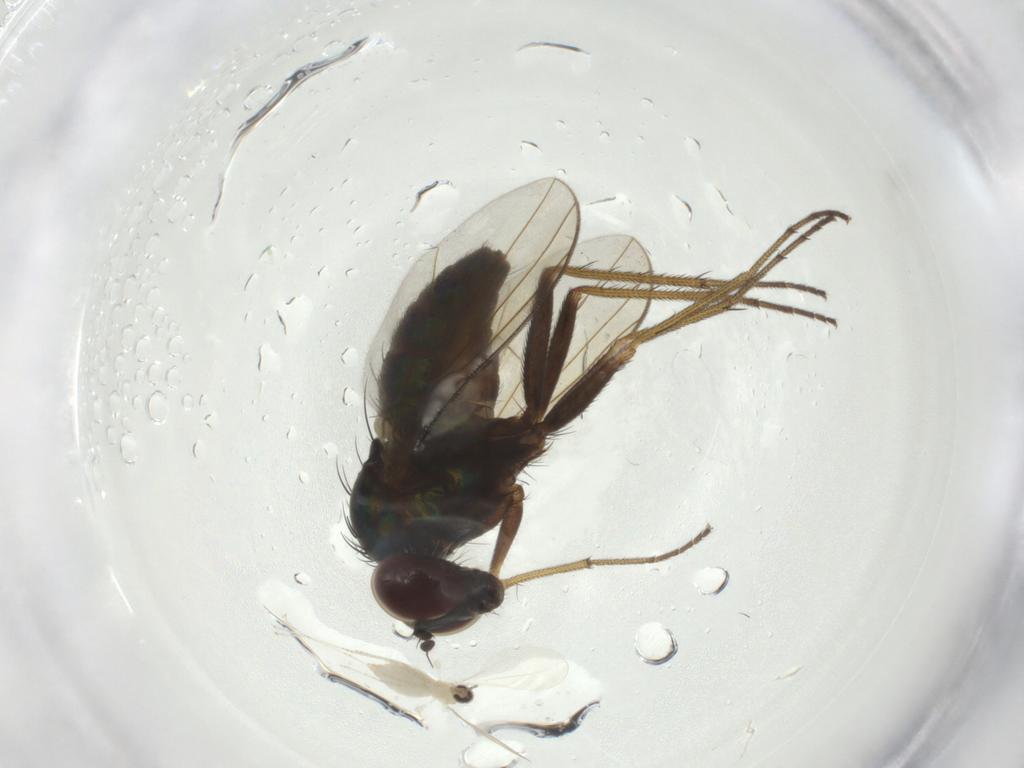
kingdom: Animalia
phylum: Arthropoda
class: Insecta
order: Diptera
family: Dolichopodidae
